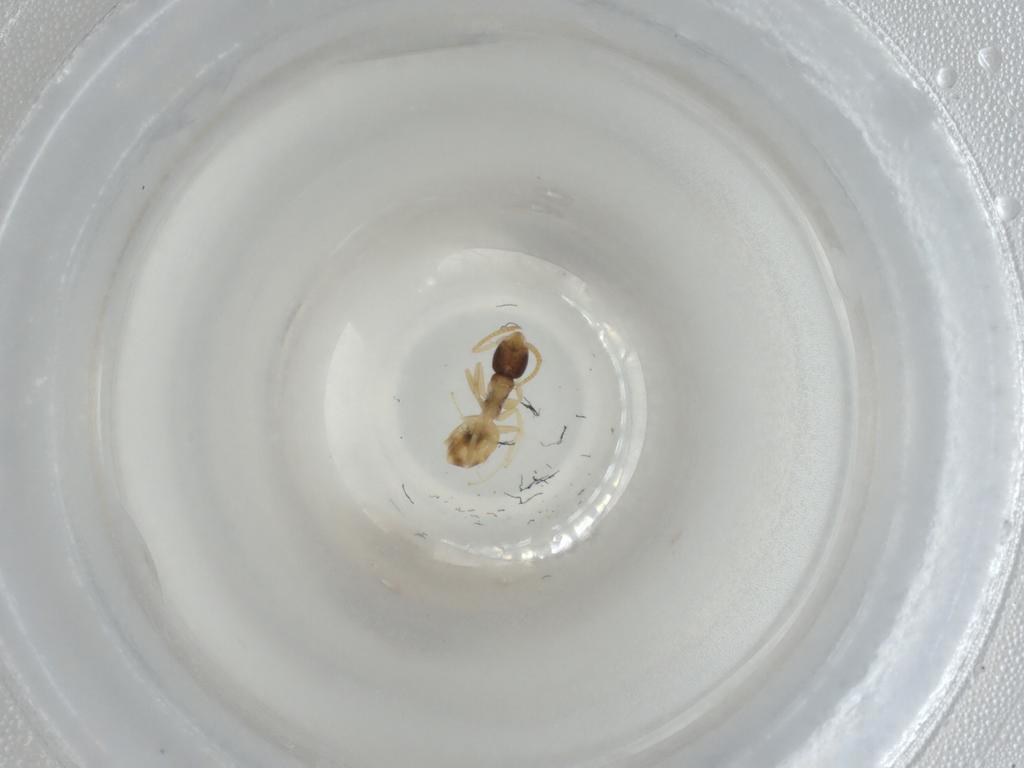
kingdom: Animalia
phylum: Arthropoda
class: Insecta
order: Hymenoptera
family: Formicidae
